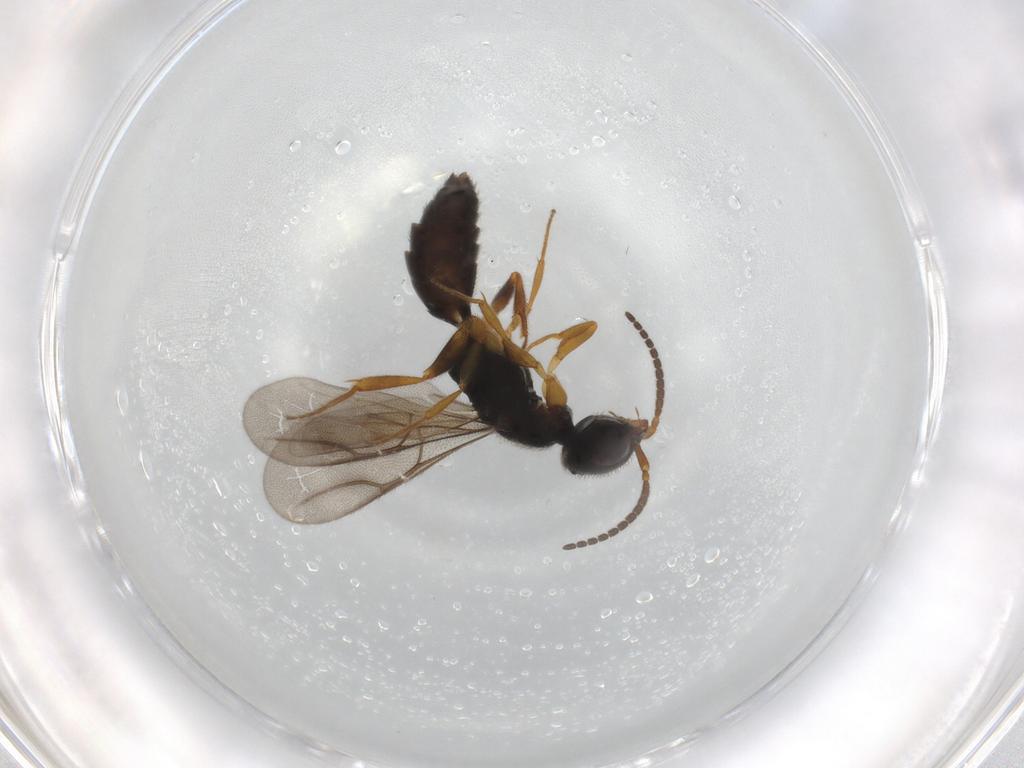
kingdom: Animalia
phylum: Arthropoda
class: Insecta
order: Hymenoptera
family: Bethylidae
